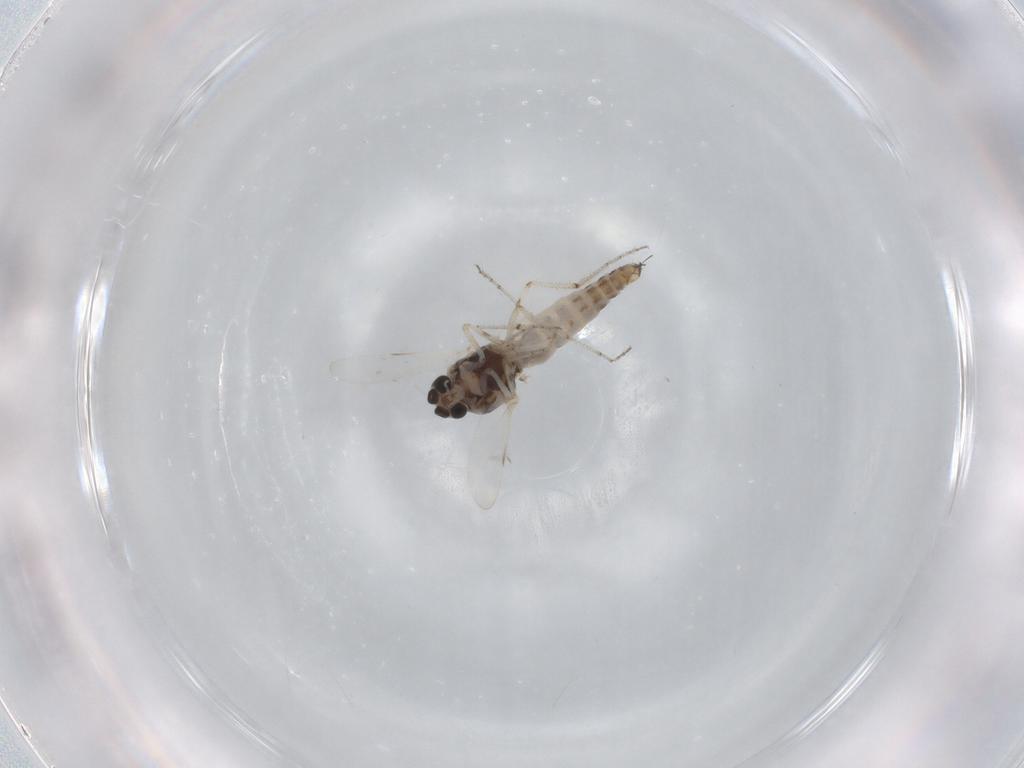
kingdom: Animalia
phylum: Arthropoda
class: Insecta
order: Diptera
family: Ceratopogonidae
